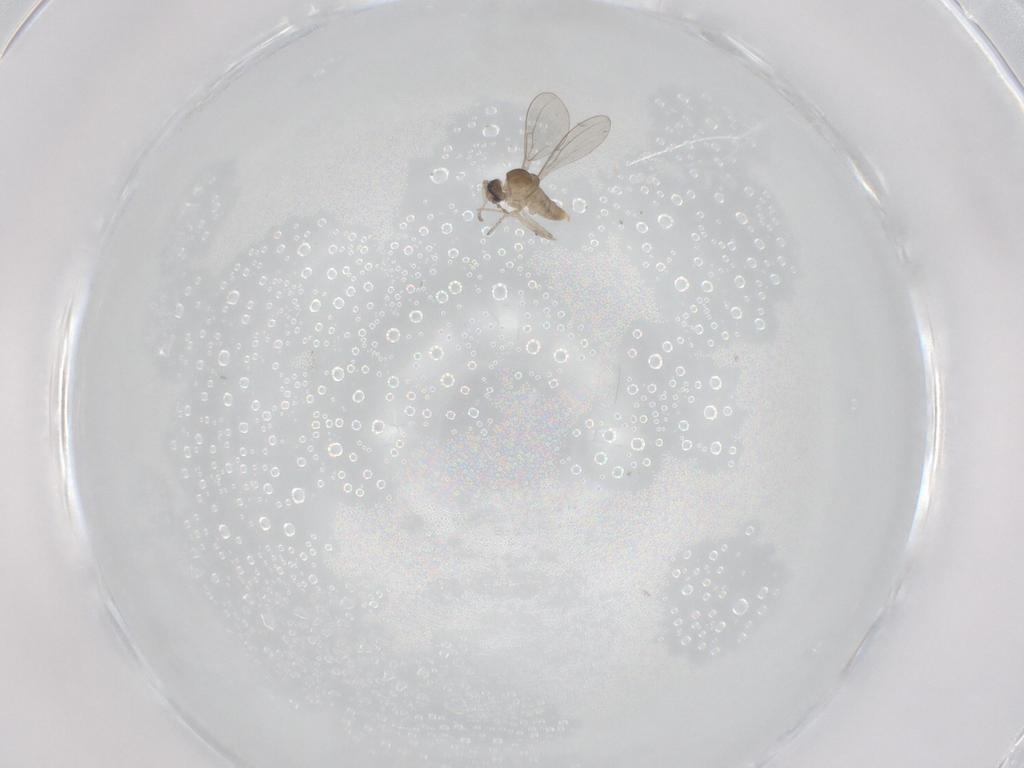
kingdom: Animalia
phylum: Arthropoda
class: Insecta
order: Diptera
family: Cecidomyiidae
